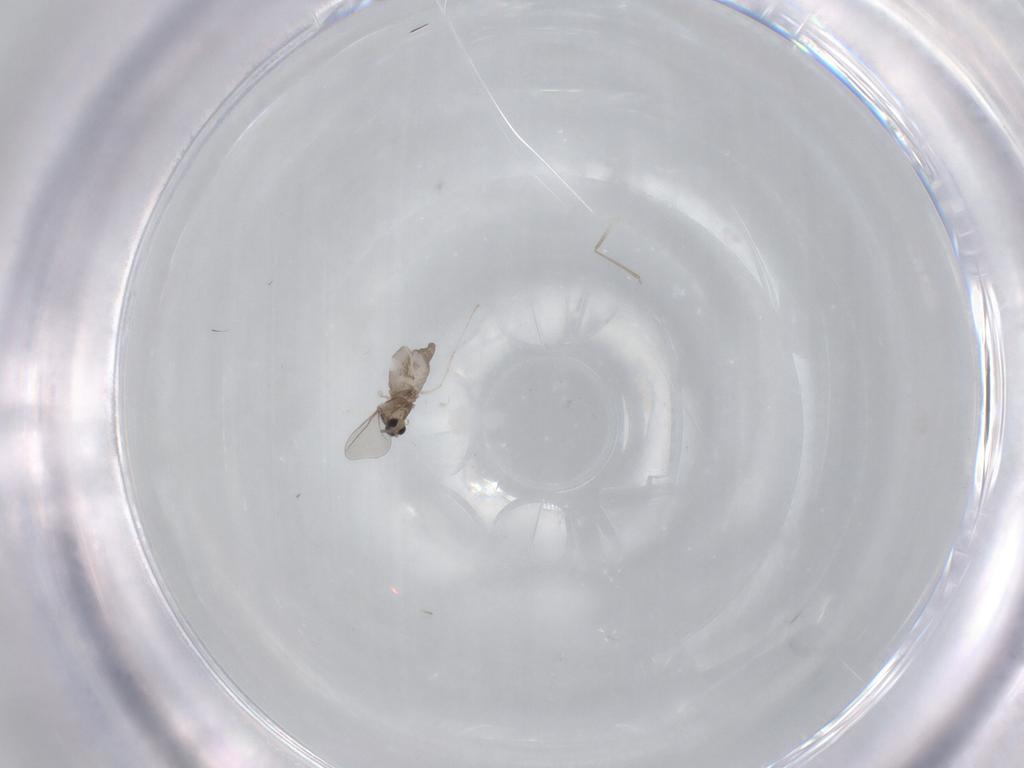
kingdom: Animalia
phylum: Arthropoda
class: Insecta
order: Diptera
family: Cecidomyiidae
